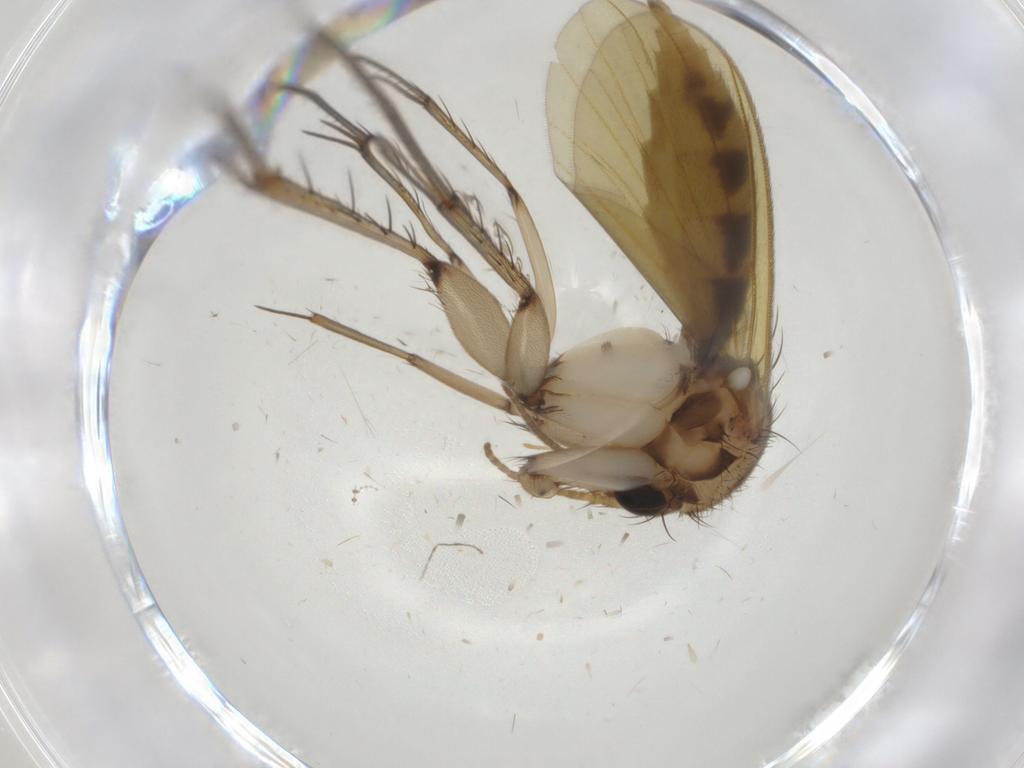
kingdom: Animalia
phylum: Arthropoda
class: Insecta
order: Diptera
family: Mycetophilidae
